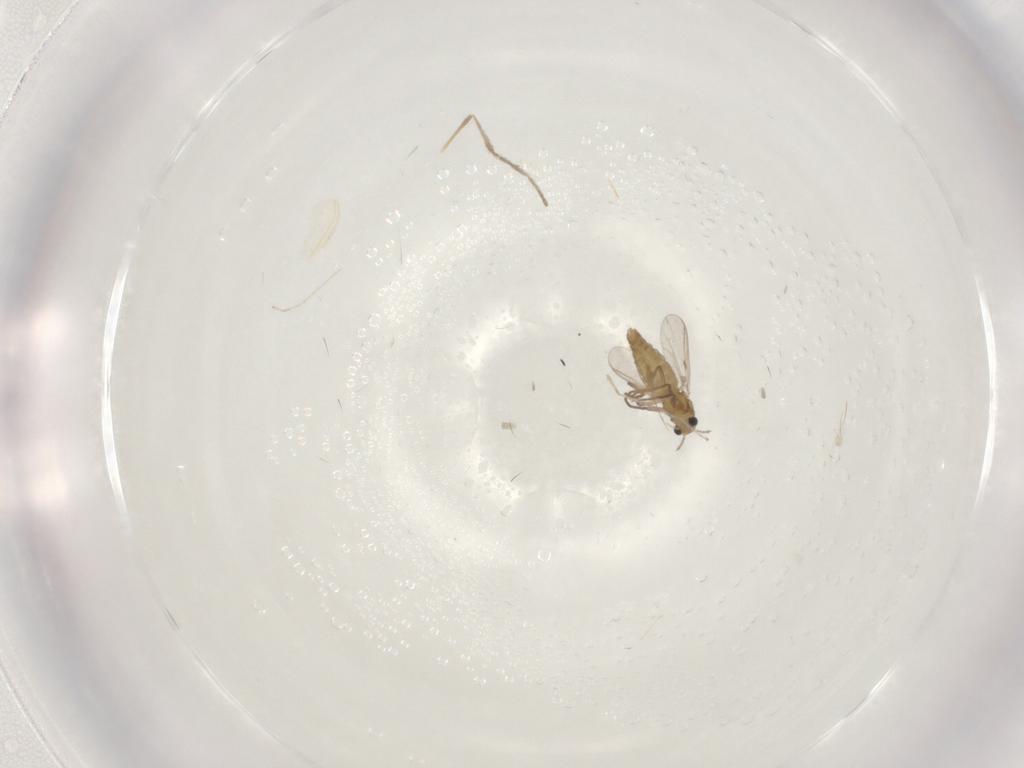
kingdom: Animalia
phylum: Arthropoda
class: Insecta
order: Diptera
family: Chironomidae
